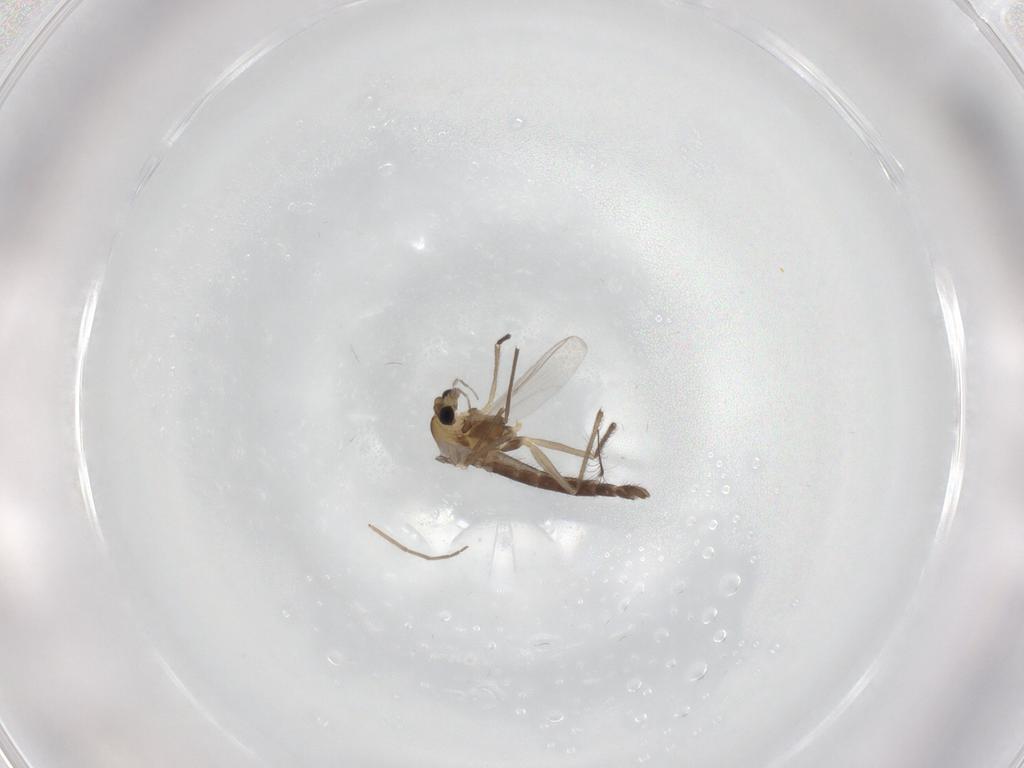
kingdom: Animalia
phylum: Arthropoda
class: Insecta
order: Diptera
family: Chironomidae
